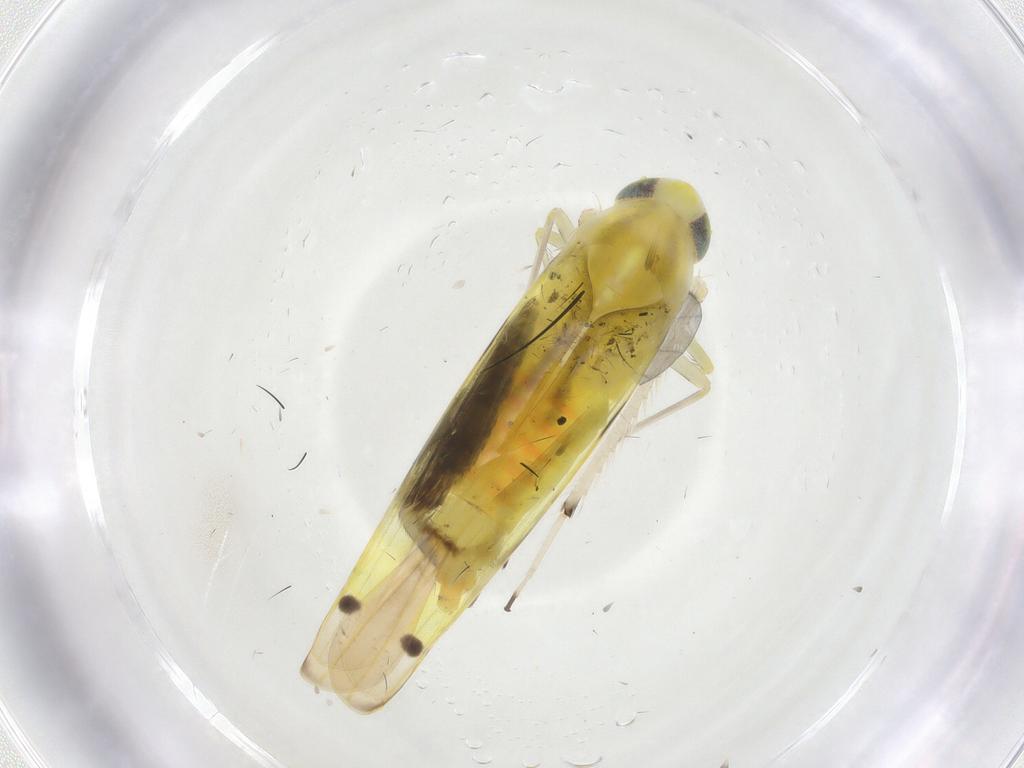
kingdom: Animalia
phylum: Arthropoda
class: Insecta
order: Hemiptera
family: Cicadellidae
